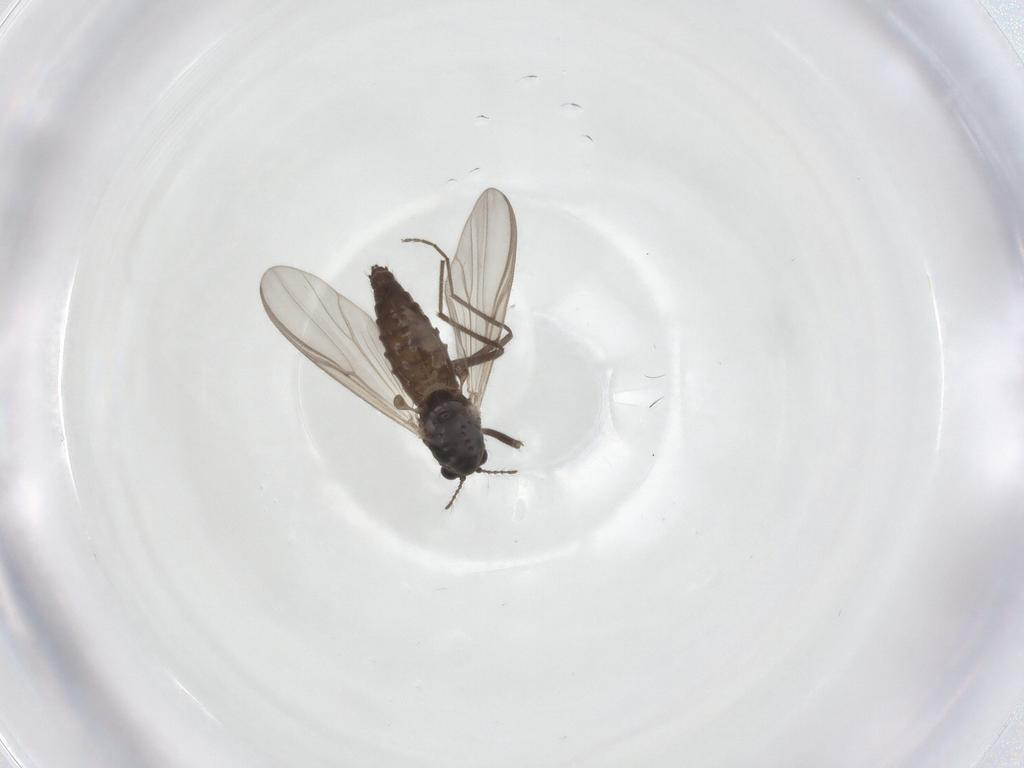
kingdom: Animalia
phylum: Arthropoda
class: Insecta
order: Diptera
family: Chironomidae
